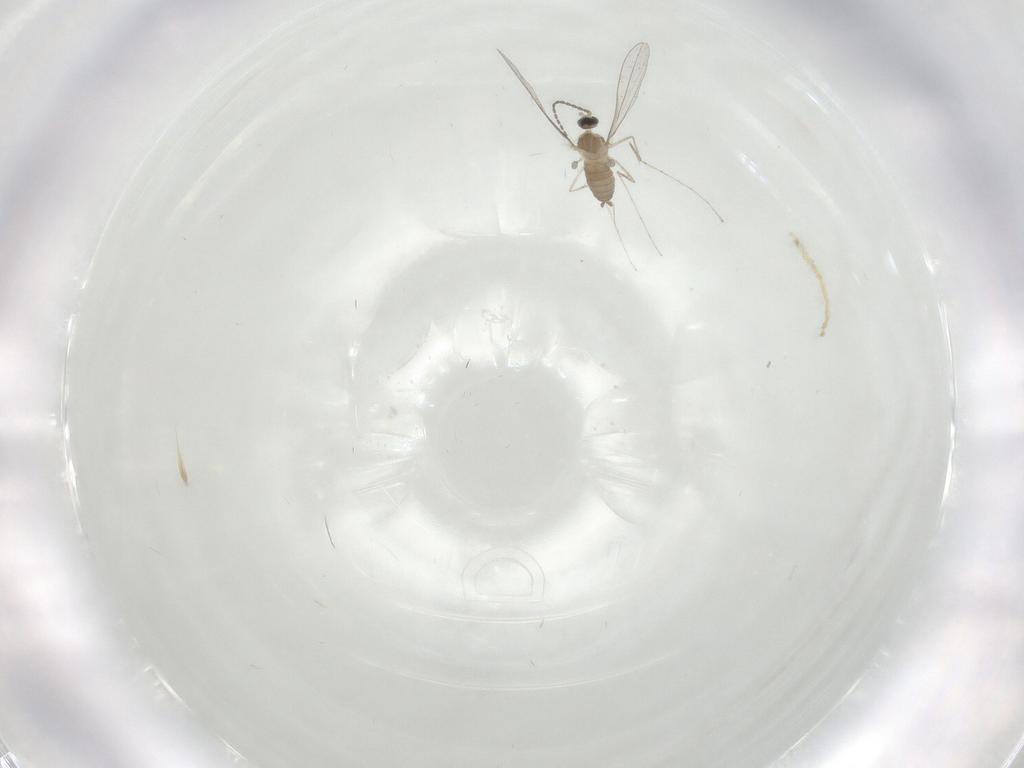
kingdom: Animalia
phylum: Arthropoda
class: Insecta
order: Diptera
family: Cecidomyiidae
